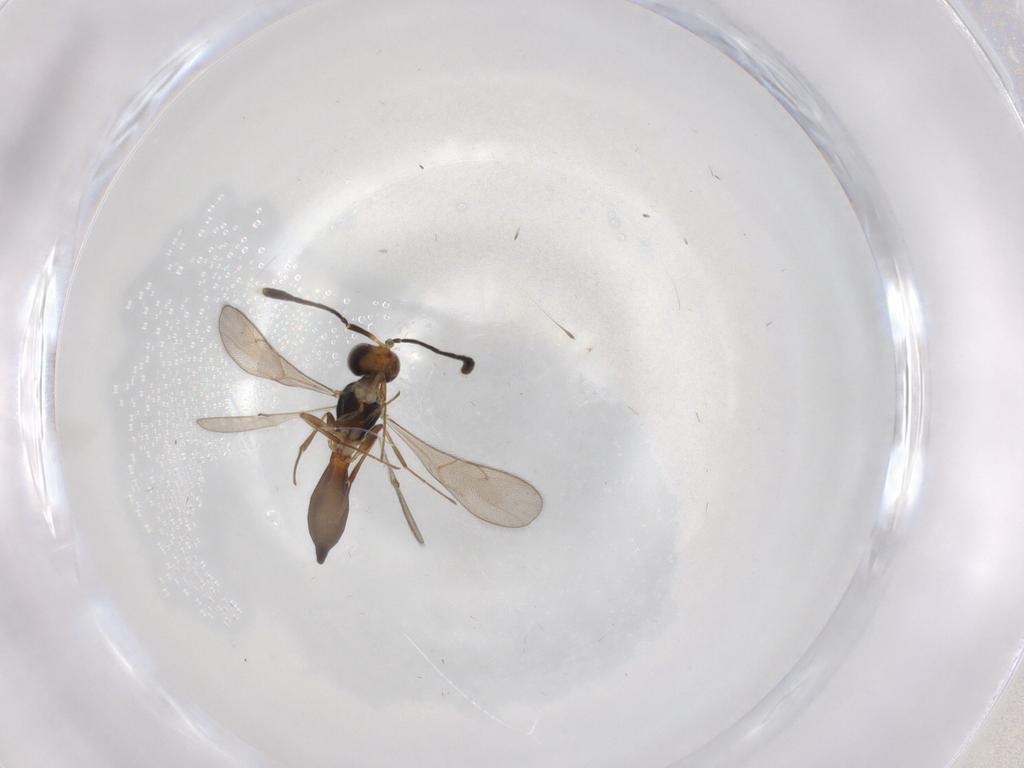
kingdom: Animalia
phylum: Arthropoda
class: Insecta
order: Hymenoptera
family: Scelionidae
